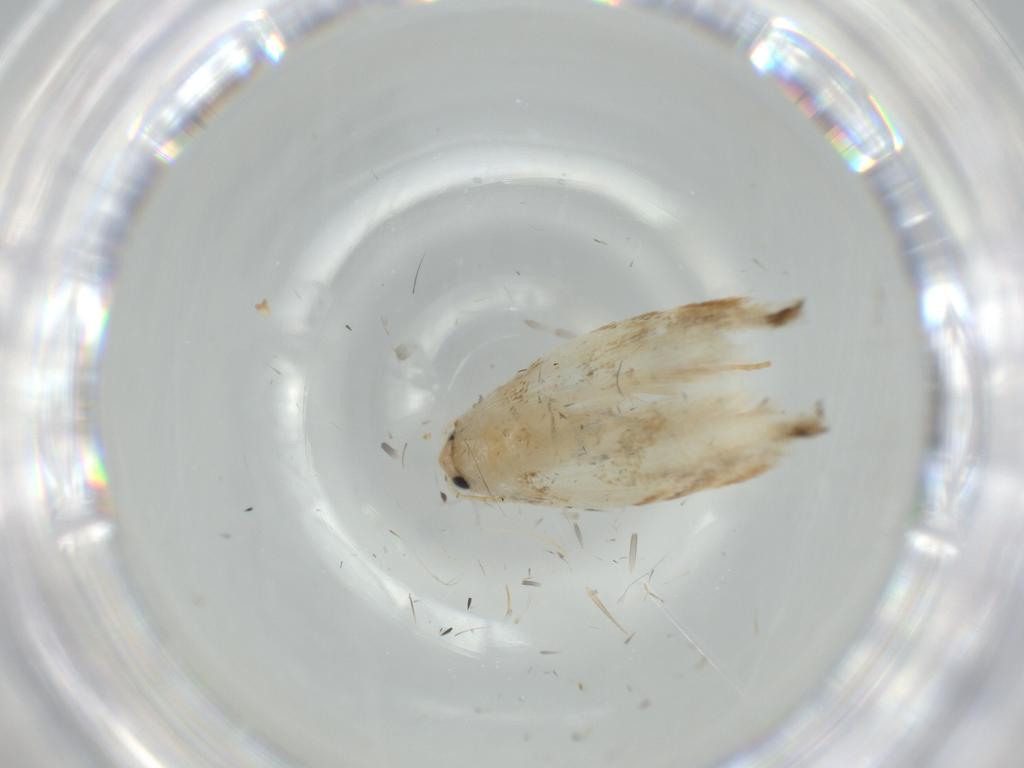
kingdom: Animalia
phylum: Arthropoda
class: Insecta
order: Lepidoptera
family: Tineidae
